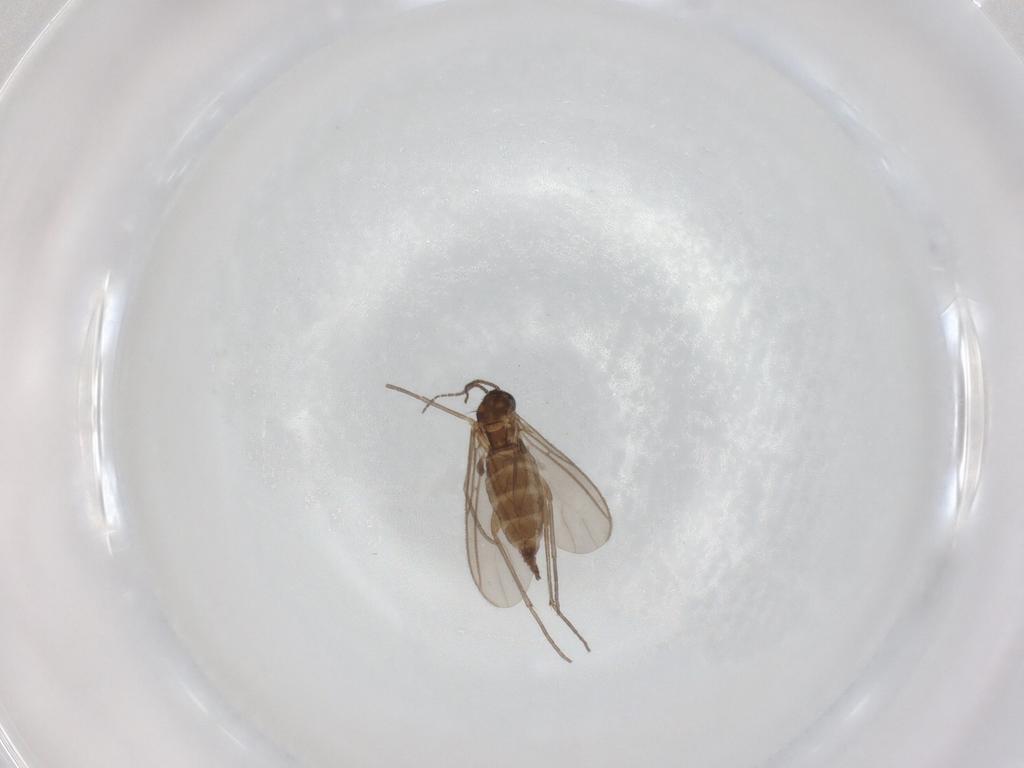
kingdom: Animalia
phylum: Arthropoda
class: Insecta
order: Diptera
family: Sciaridae
